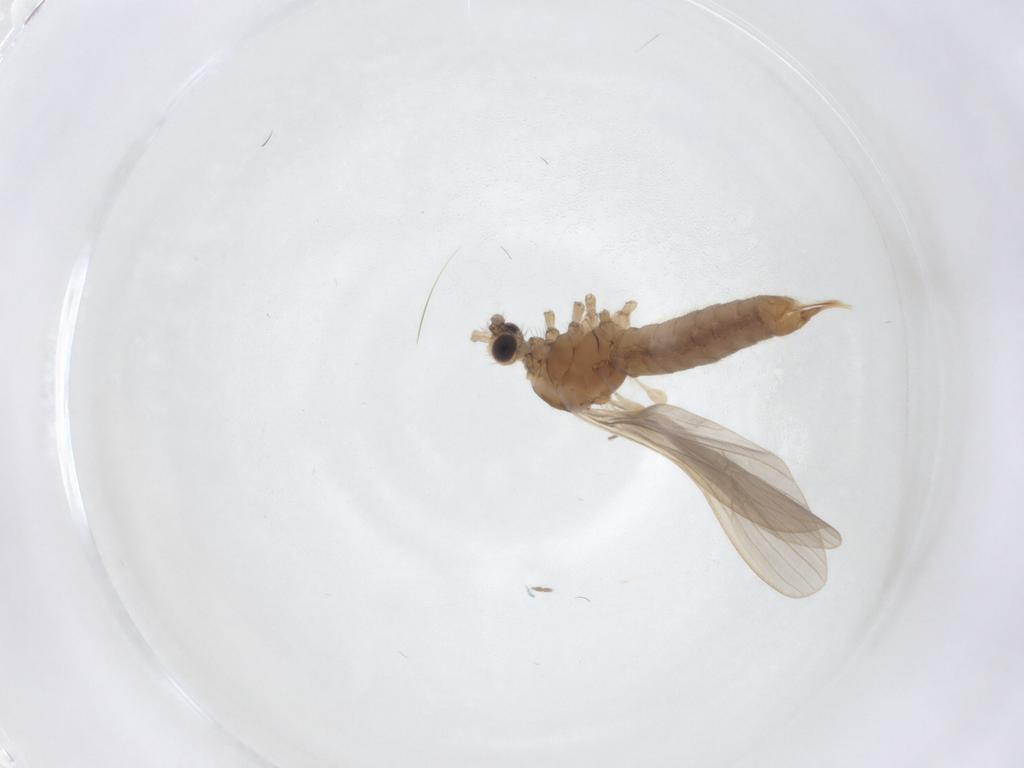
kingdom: Animalia
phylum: Arthropoda
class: Insecta
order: Diptera
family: Limoniidae
